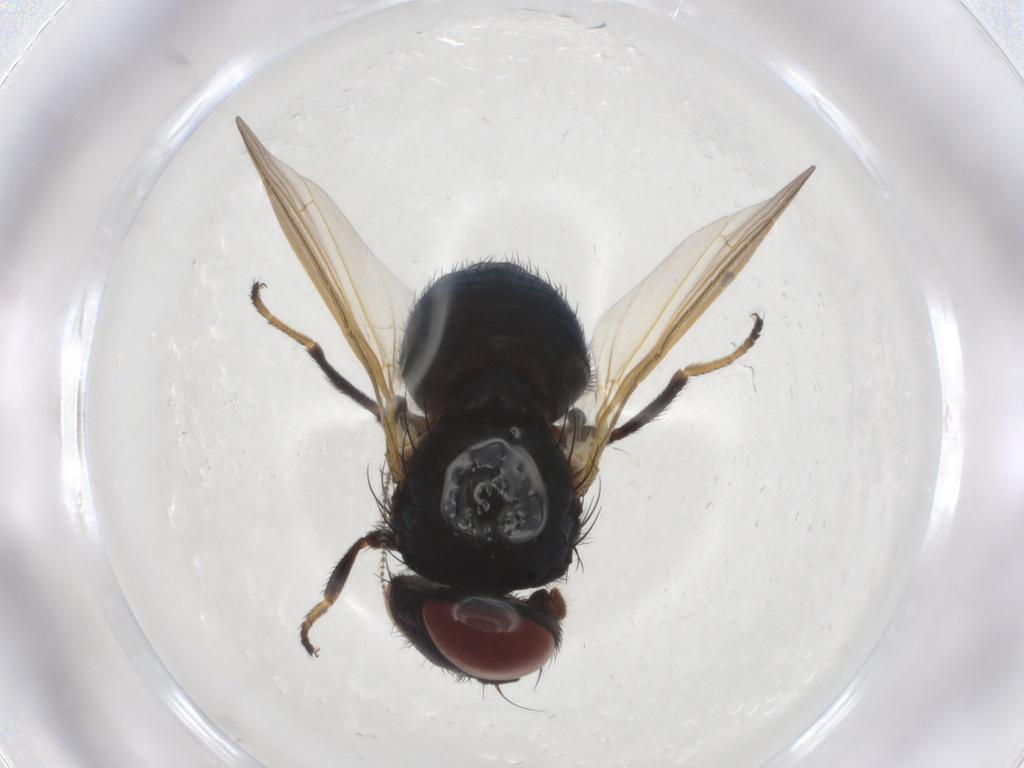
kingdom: Animalia
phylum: Arthropoda
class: Insecta
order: Diptera
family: Lonchaeidae
